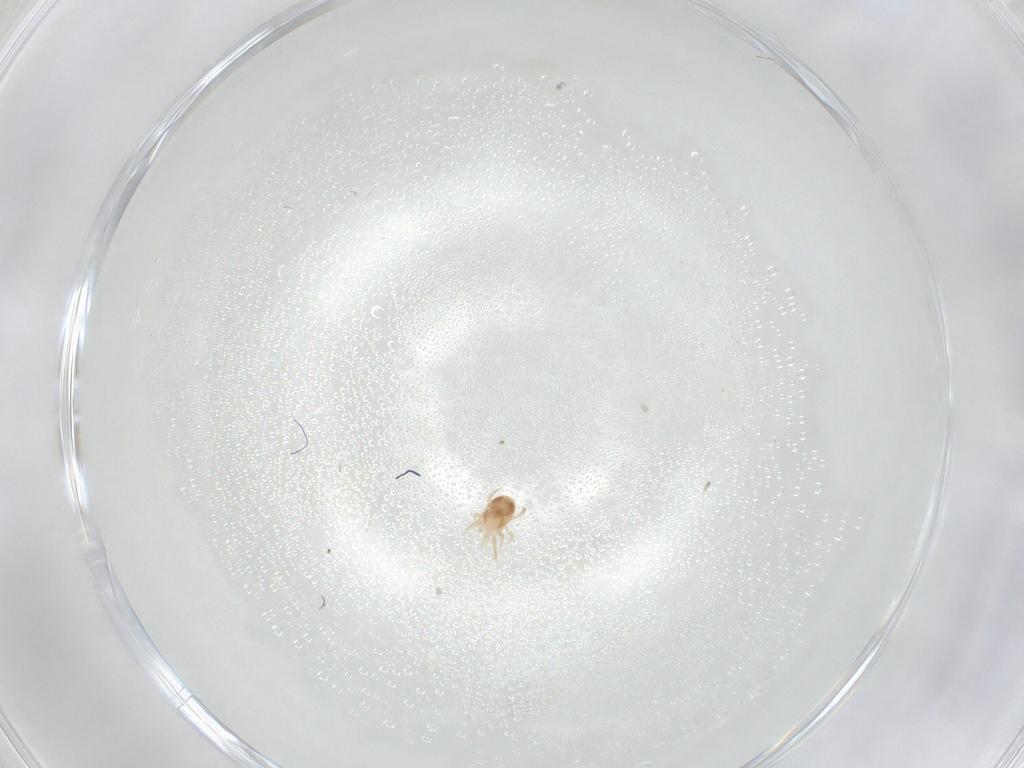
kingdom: Animalia
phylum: Arthropoda
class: Arachnida
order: Mesostigmata
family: Phytoseiidae
